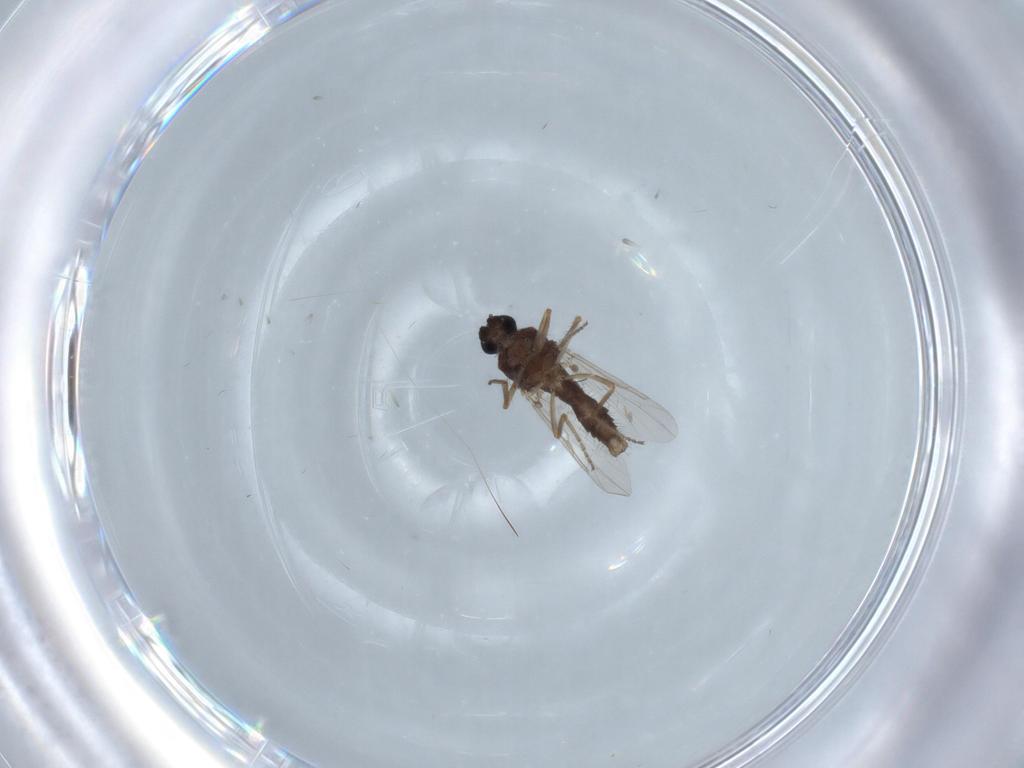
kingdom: Animalia
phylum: Arthropoda
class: Insecta
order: Diptera
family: Ceratopogonidae
